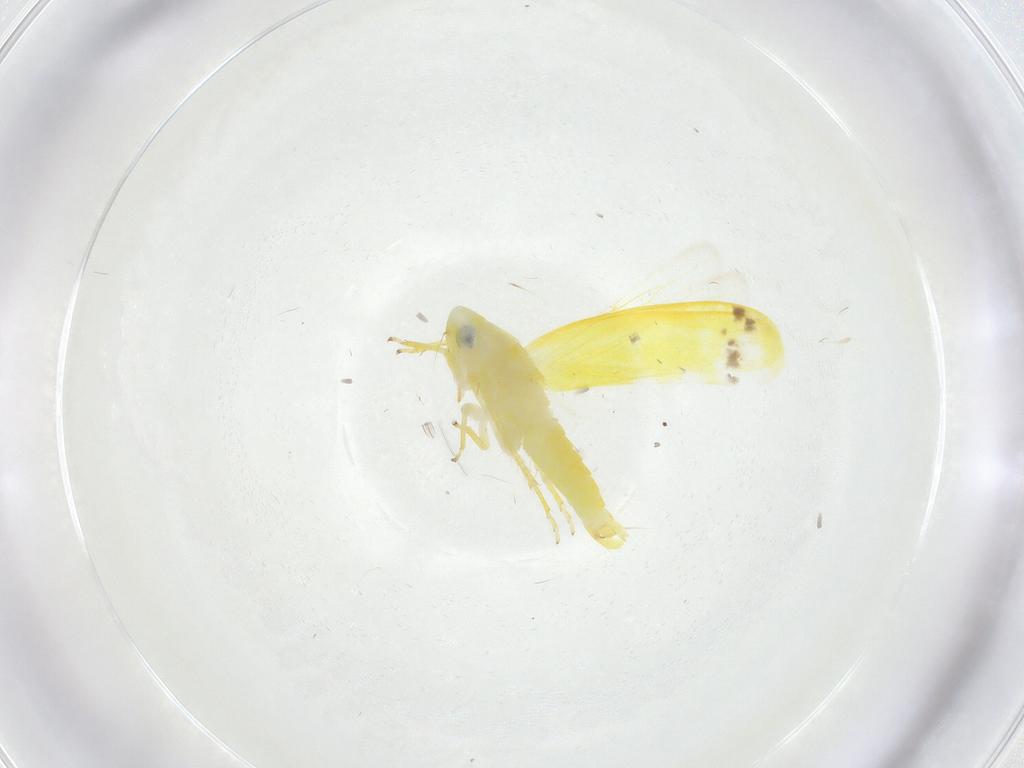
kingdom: Animalia
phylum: Arthropoda
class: Insecta
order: Hemiptera
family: Cicadellidae
